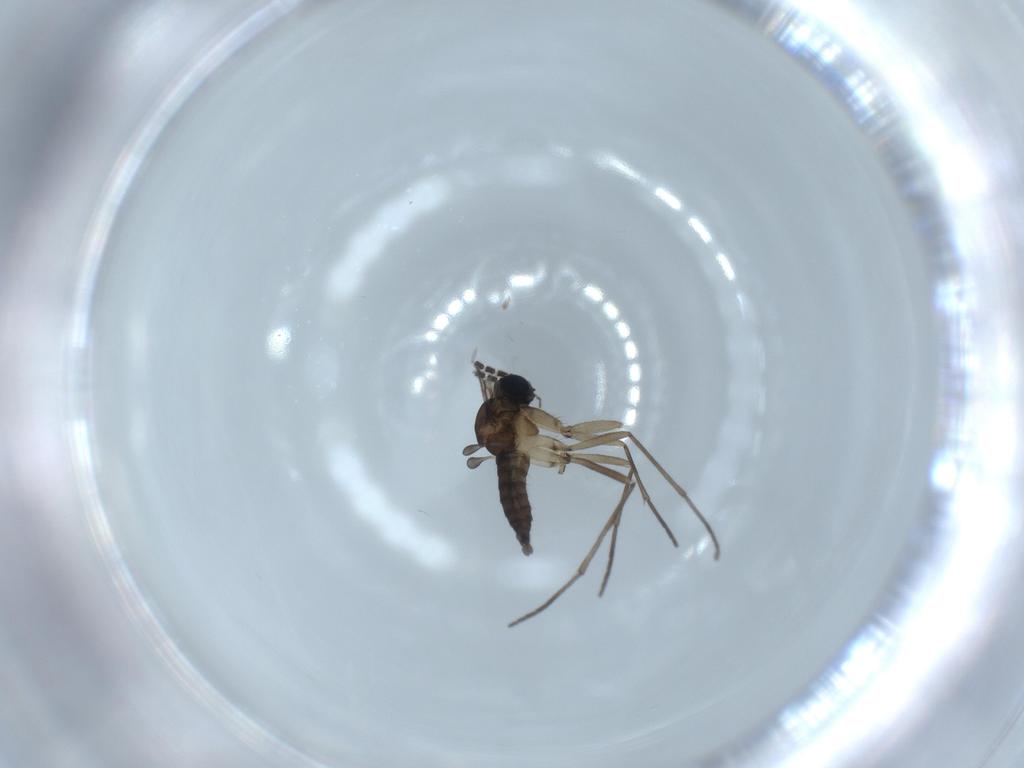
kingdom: Animalia
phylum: Arthropoda
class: Insecta
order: Diptera
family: Sciaridae
